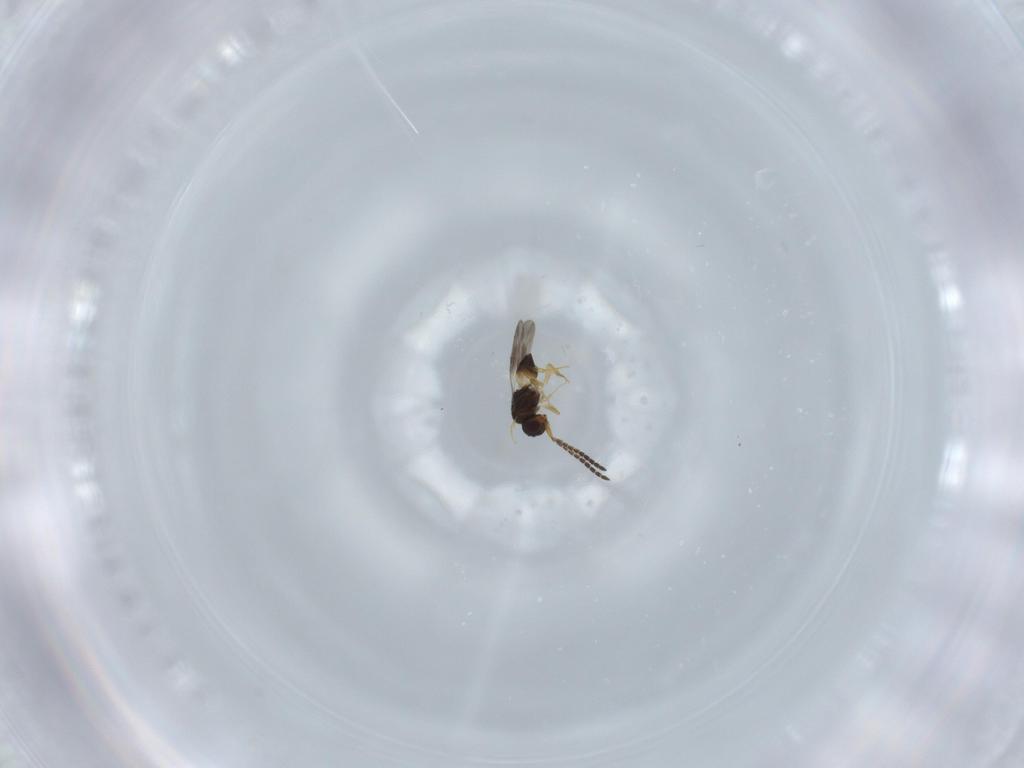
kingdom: Animalia
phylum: Arthropoda
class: Insecta
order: Hymenoptera
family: Ceraphronidae
